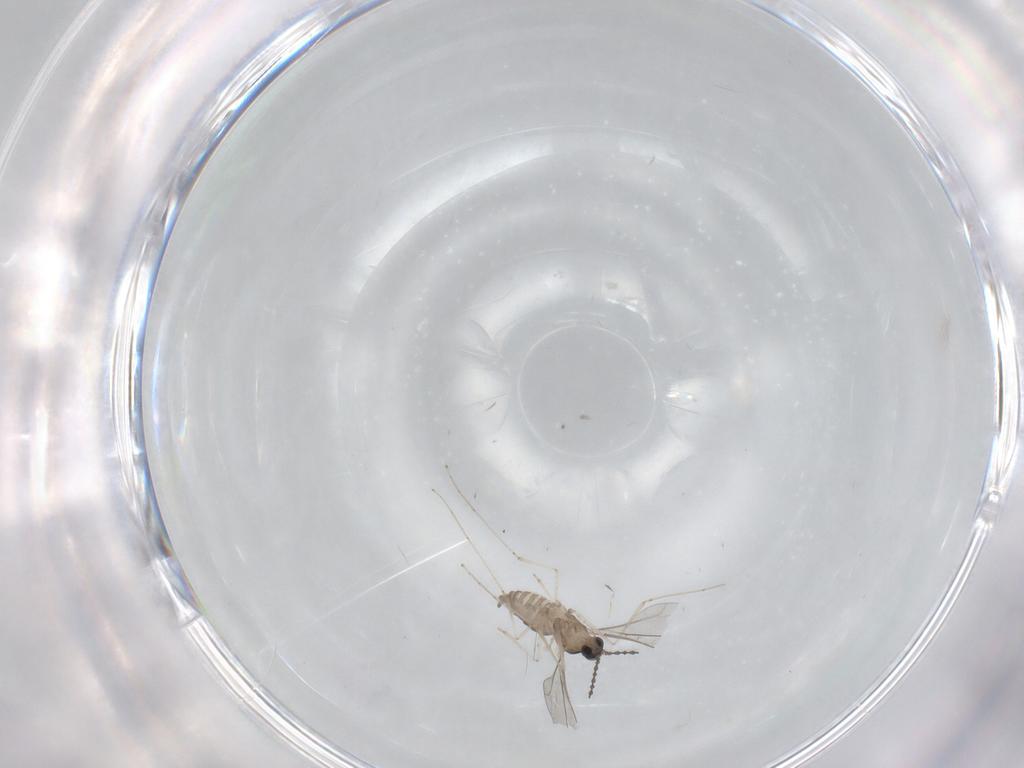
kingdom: Animalia
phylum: Arthropoda
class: Insecta
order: Diptera
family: Cecidomyiidae
